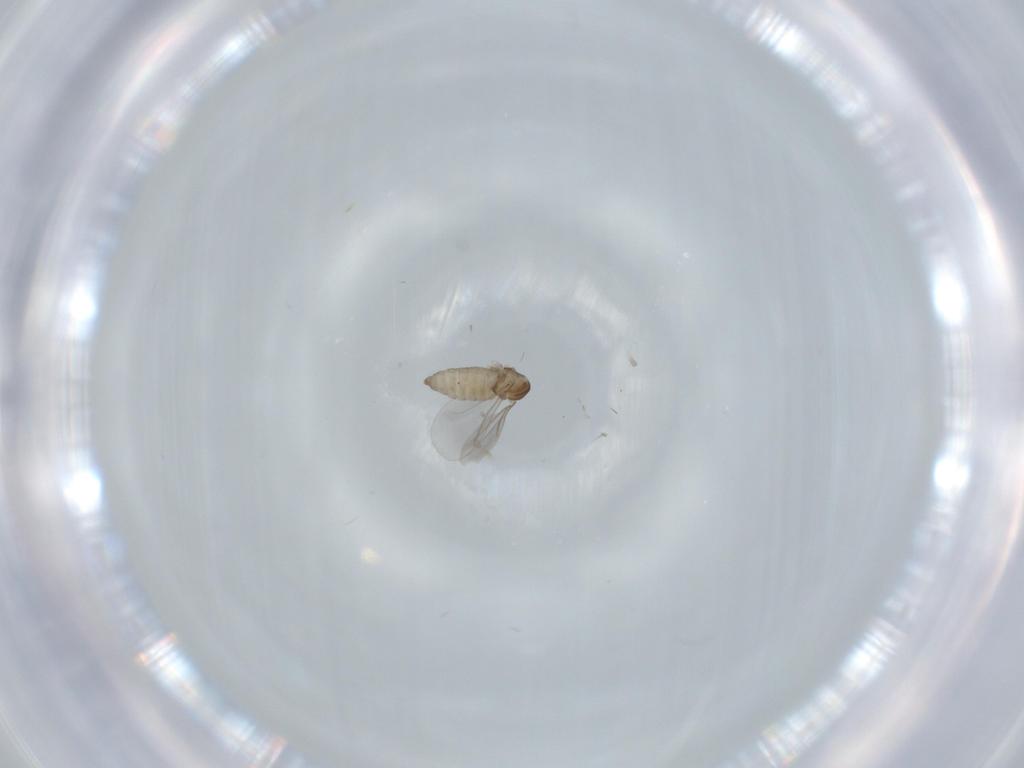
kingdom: Animalia
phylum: Arthropoda
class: Insecta
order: Diptera
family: Cecidomyiidae
